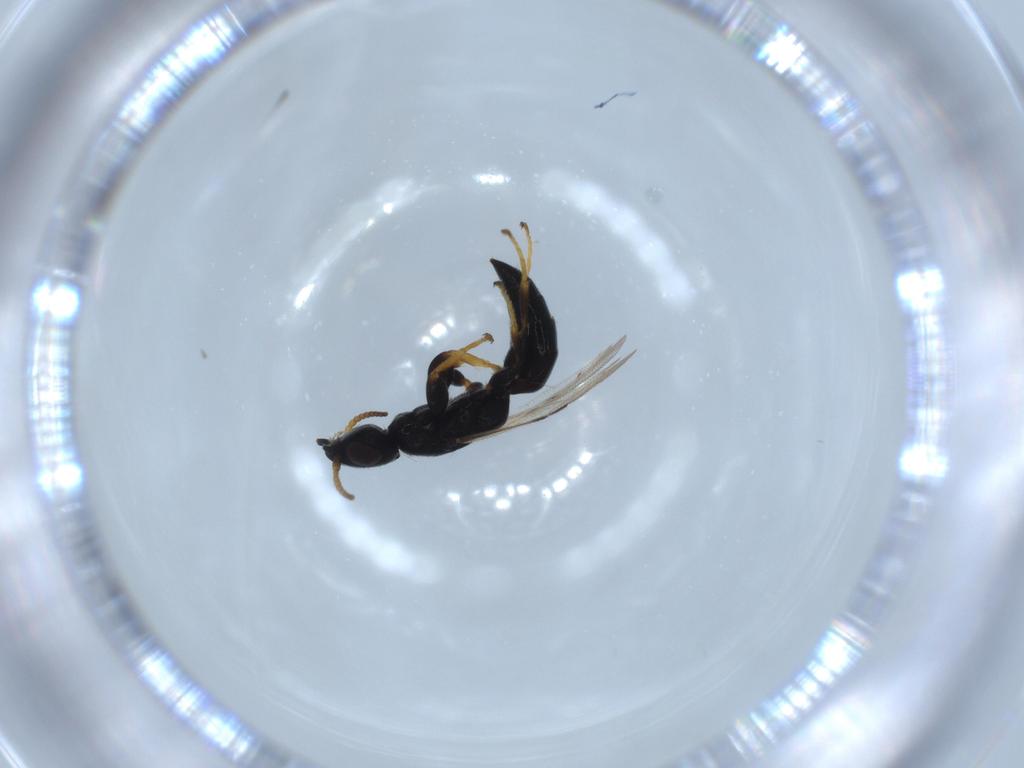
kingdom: Animalia
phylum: Arthropoda
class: Insecta
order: Hymenoptera
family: Bethylidae
